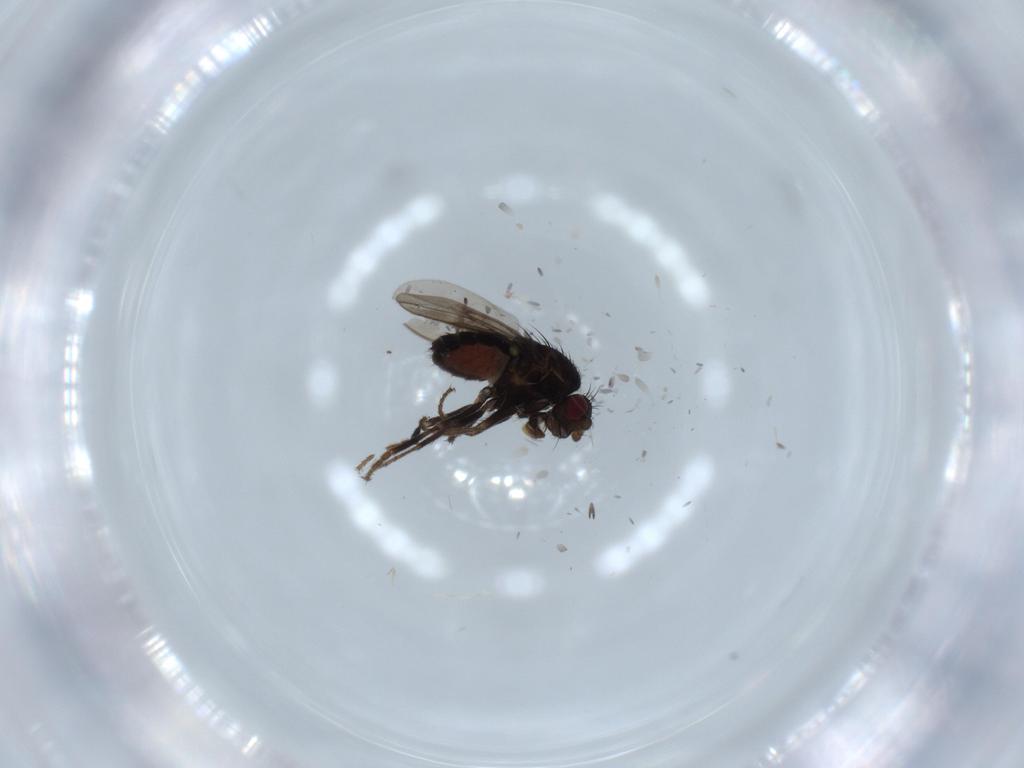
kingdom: Animalia
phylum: Arthropoda
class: Insecta
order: Diptera
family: Sphaeroceridae
